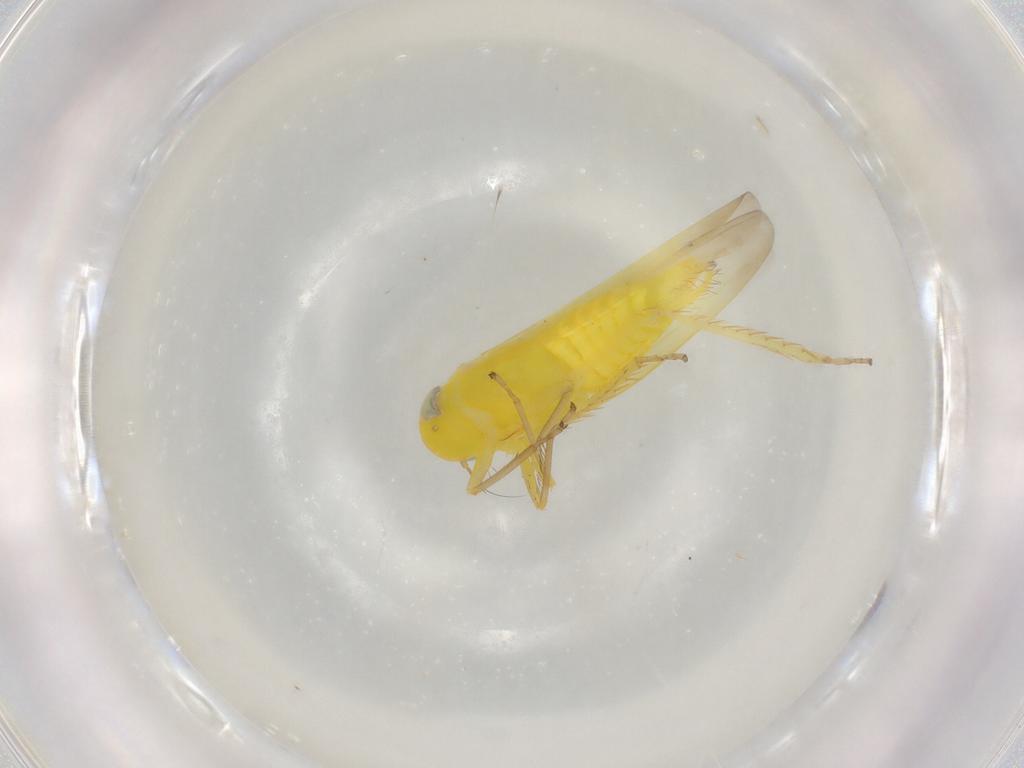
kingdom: Animalia
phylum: Arthropoda
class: Insecta
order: Hemiptera
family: Cicadellidae
